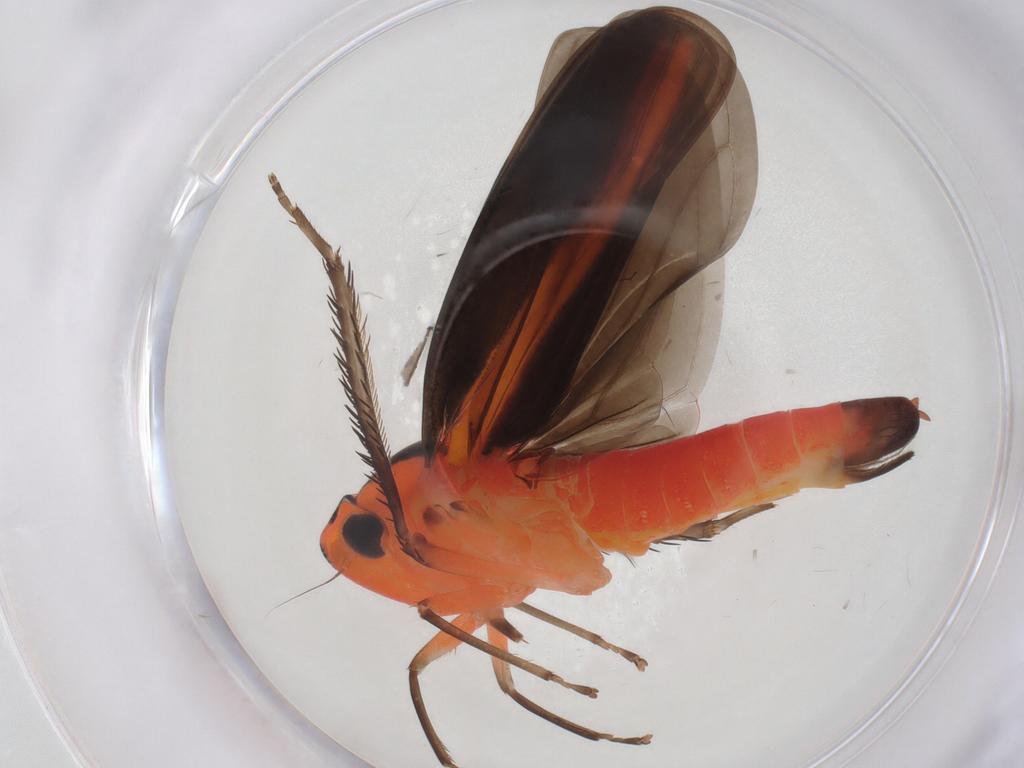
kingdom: Animalia
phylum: Arthropoda
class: Insecta
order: Hemiptera
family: Cicadellidae
